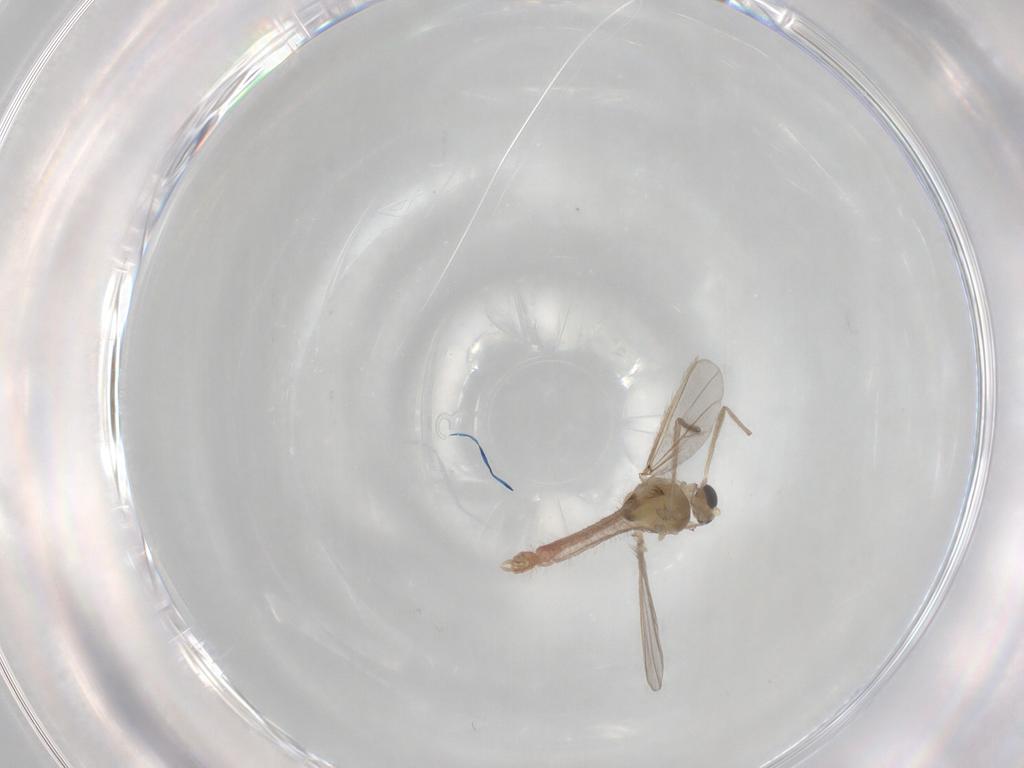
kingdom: Animalia
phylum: Arthropoda
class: Insecta
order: Diptera
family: Chironomidae
